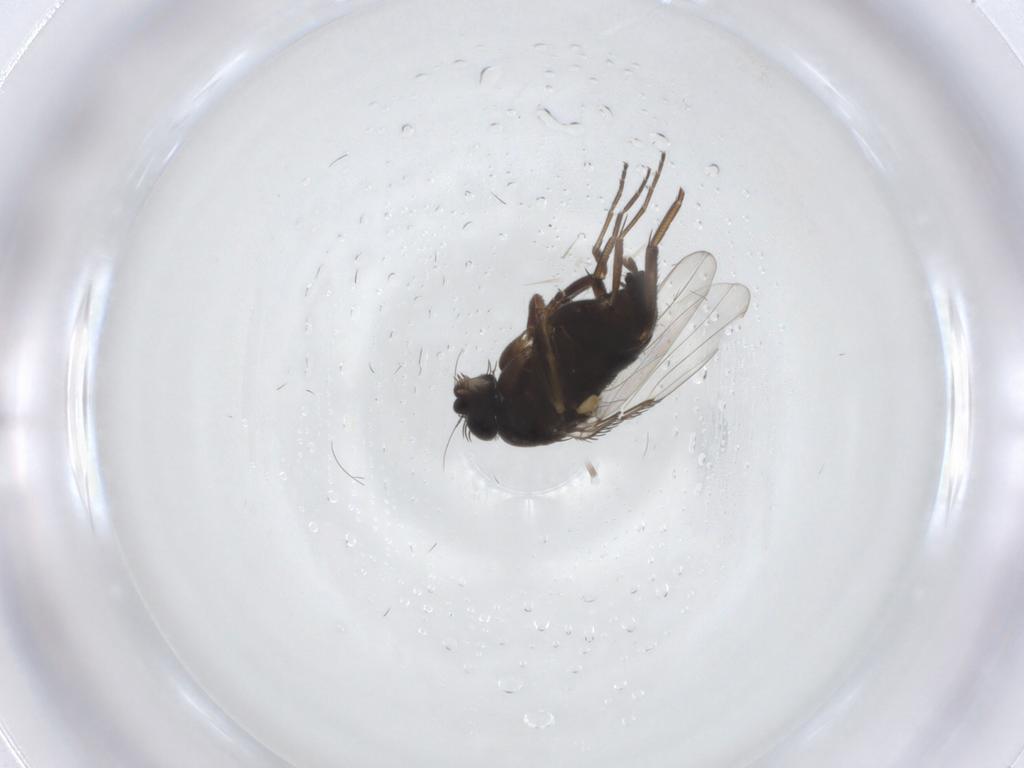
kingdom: Animalia
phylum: Arthropoda
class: Insecta
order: Diptera
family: Phoridae
